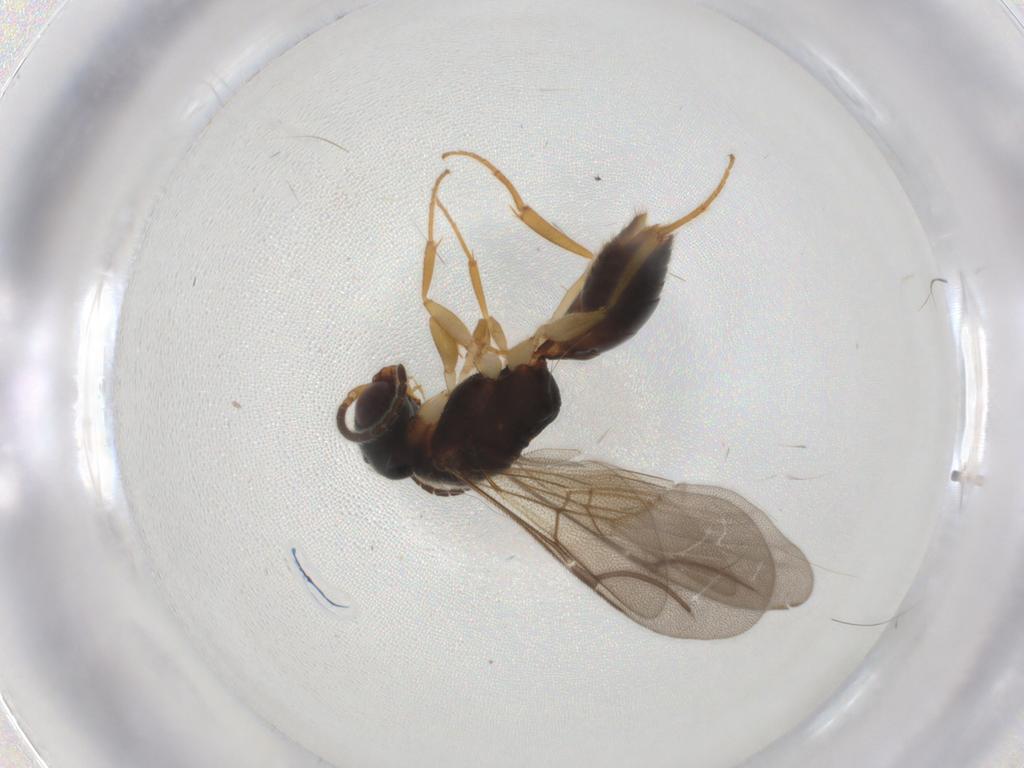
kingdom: Animalia
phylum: Arthropoda
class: Insecta
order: Hymenoptera
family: Bethylidae
